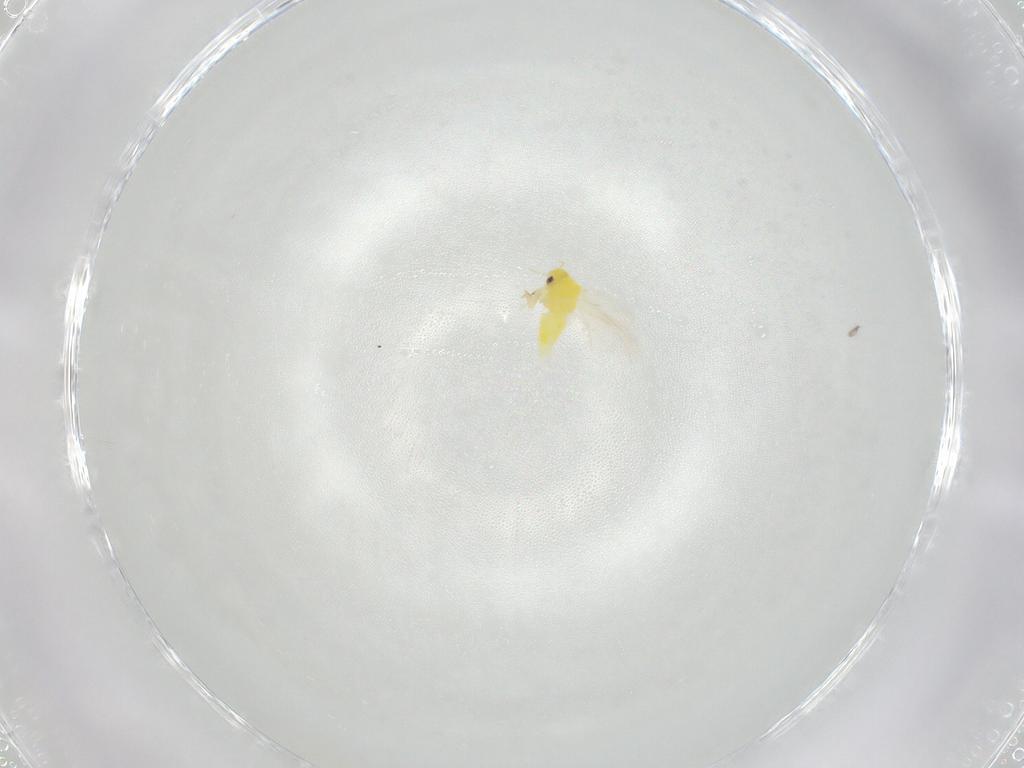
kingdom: Animalia
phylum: Arthropoda
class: Insecta
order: Hemiptera
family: Aleyrodidae
